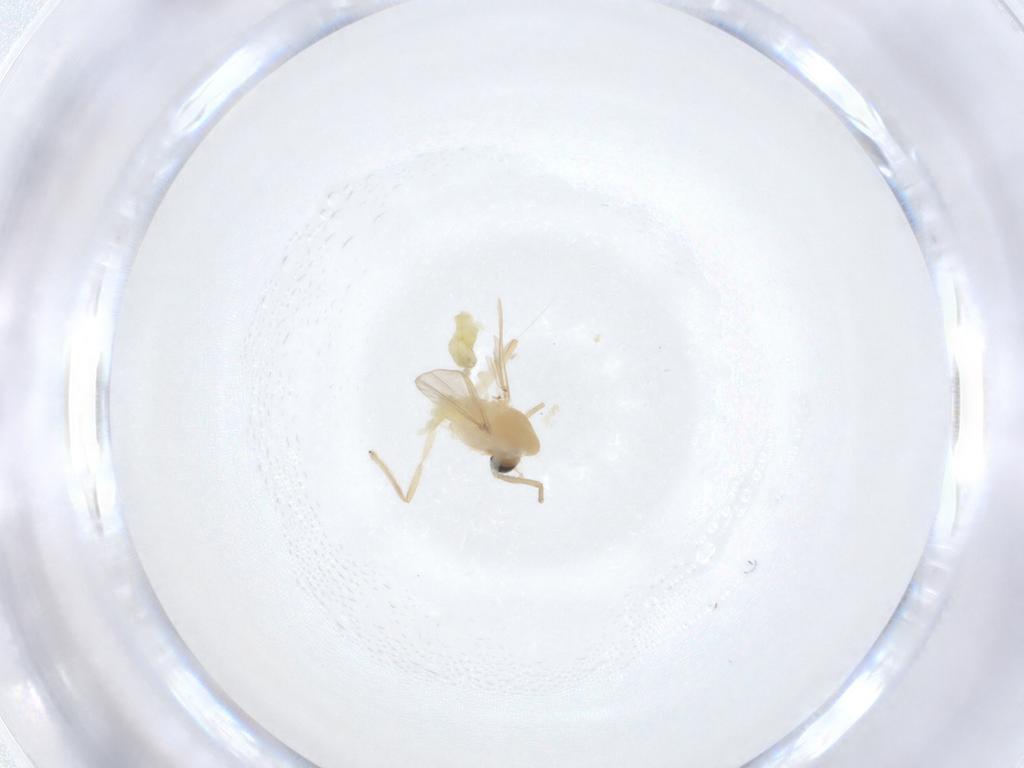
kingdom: Animalia
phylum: Arthropoda
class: Insecta
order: Diptera
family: Chironomidae
